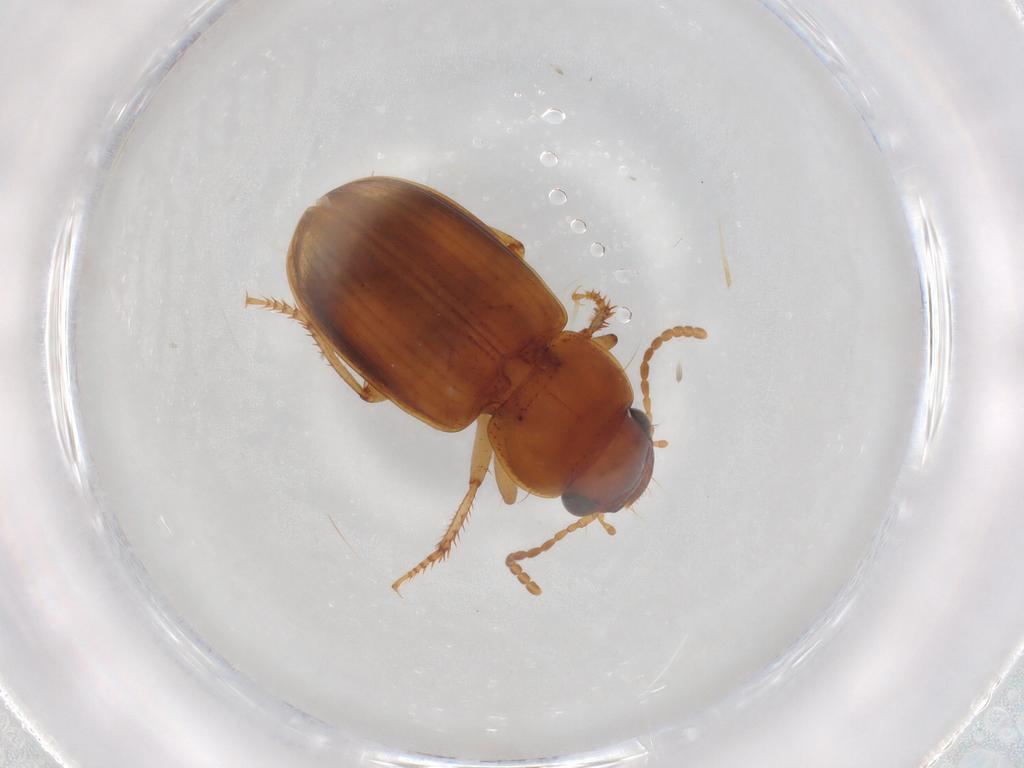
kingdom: Animalia
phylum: Arthropoda
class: Insecta
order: Coleoptera
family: Carabidae
